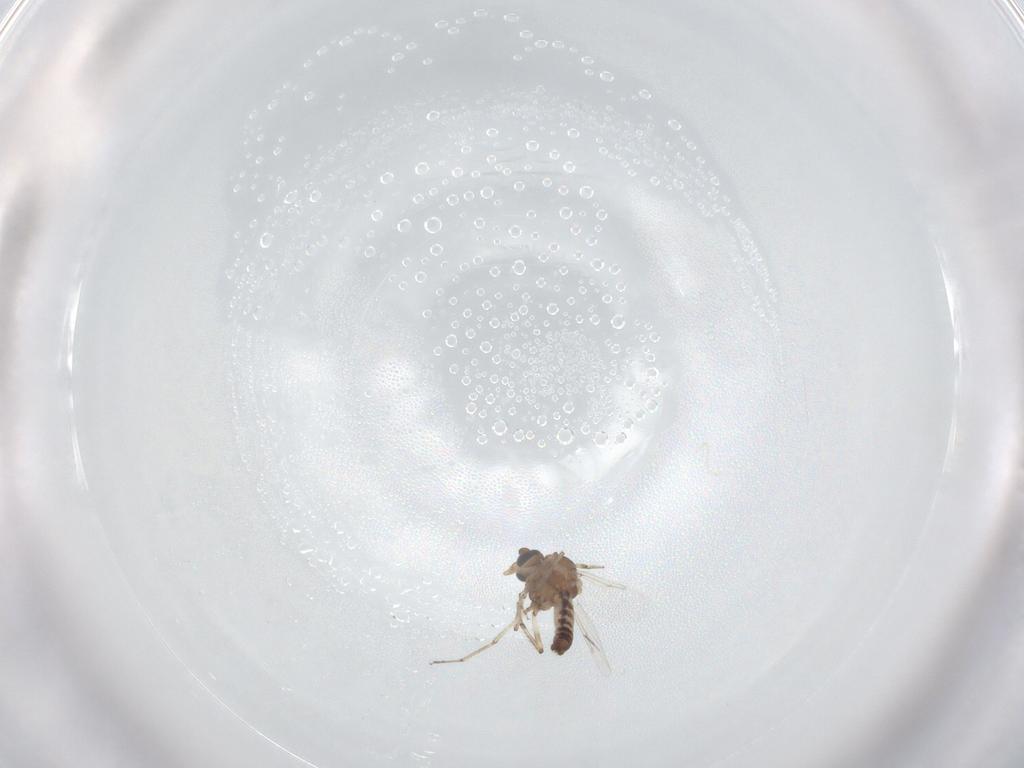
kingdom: Animalia
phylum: Arthropoda
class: Insecta
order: Diptera
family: Ceratopogonidae
